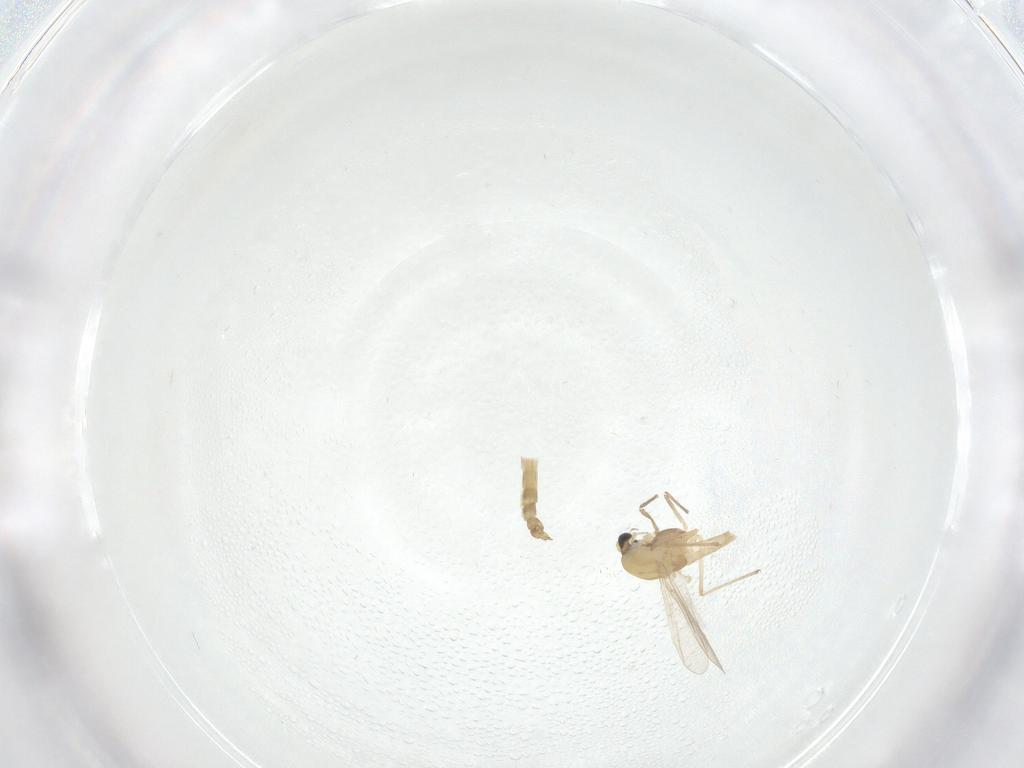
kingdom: Animalia
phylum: Arthropoda
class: Insecta
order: Diptera
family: Chironomidae
